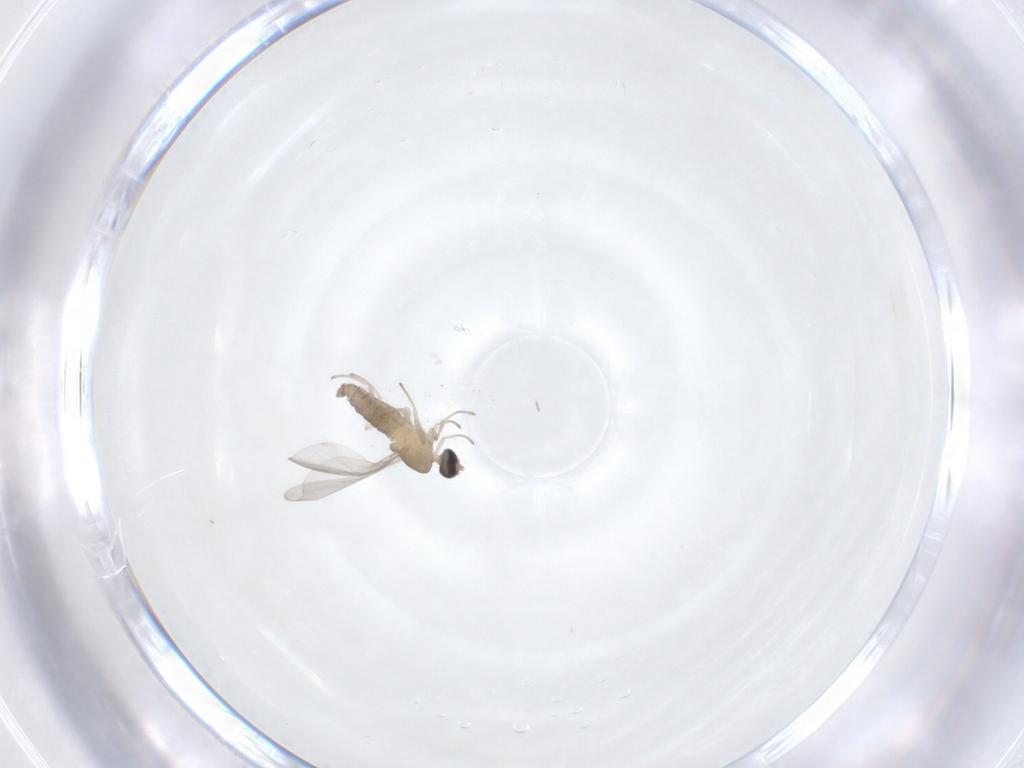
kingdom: Animalia
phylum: Arthropoda
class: Insecta
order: Diptera
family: Cecidomyiidae
